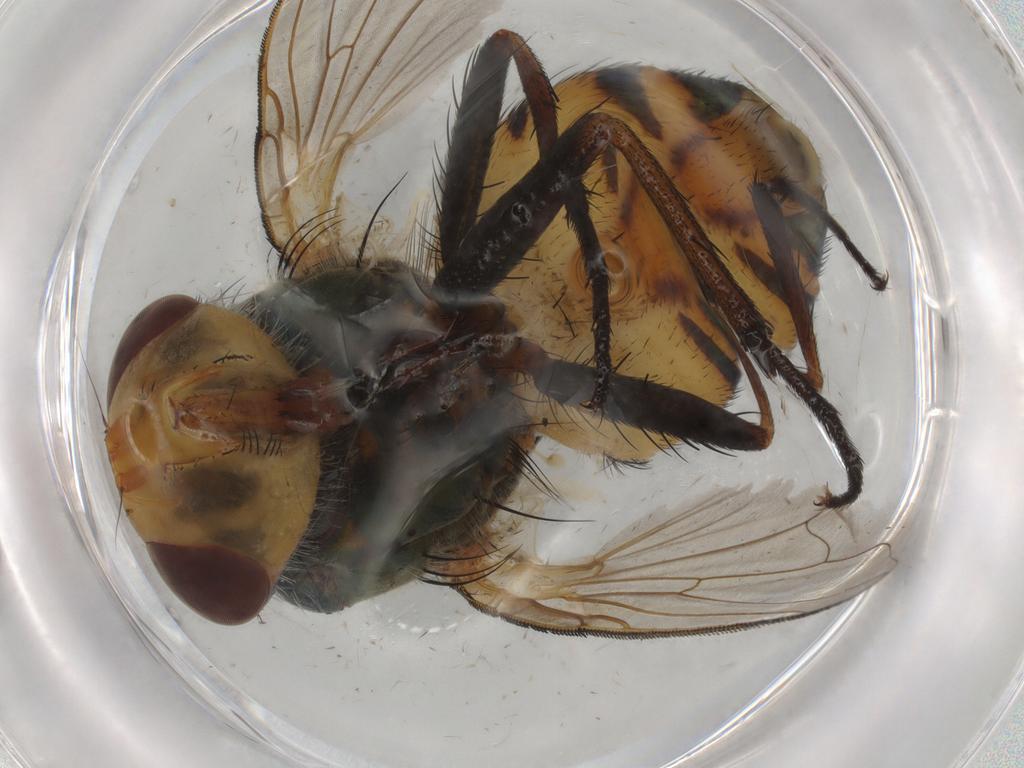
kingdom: Animalia
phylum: Arthropoda
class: Insecta
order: Diptera
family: Calliphoridae
